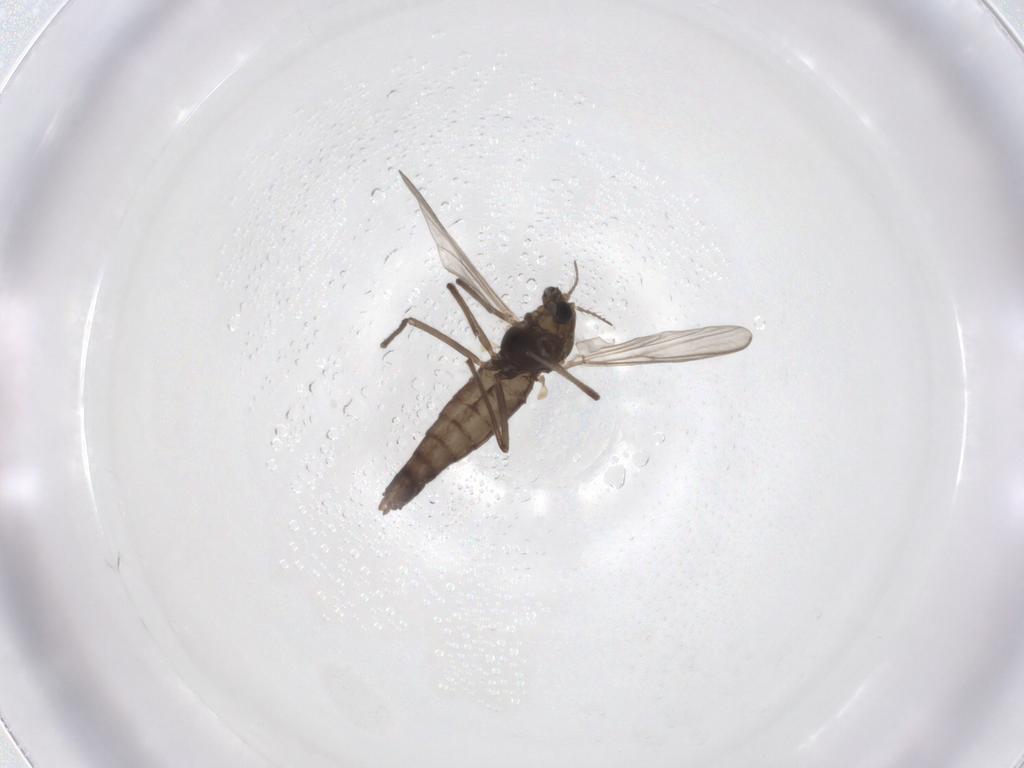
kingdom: Animalia
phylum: Arthropoda
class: Insecta
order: Diptera
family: Chironomidae
